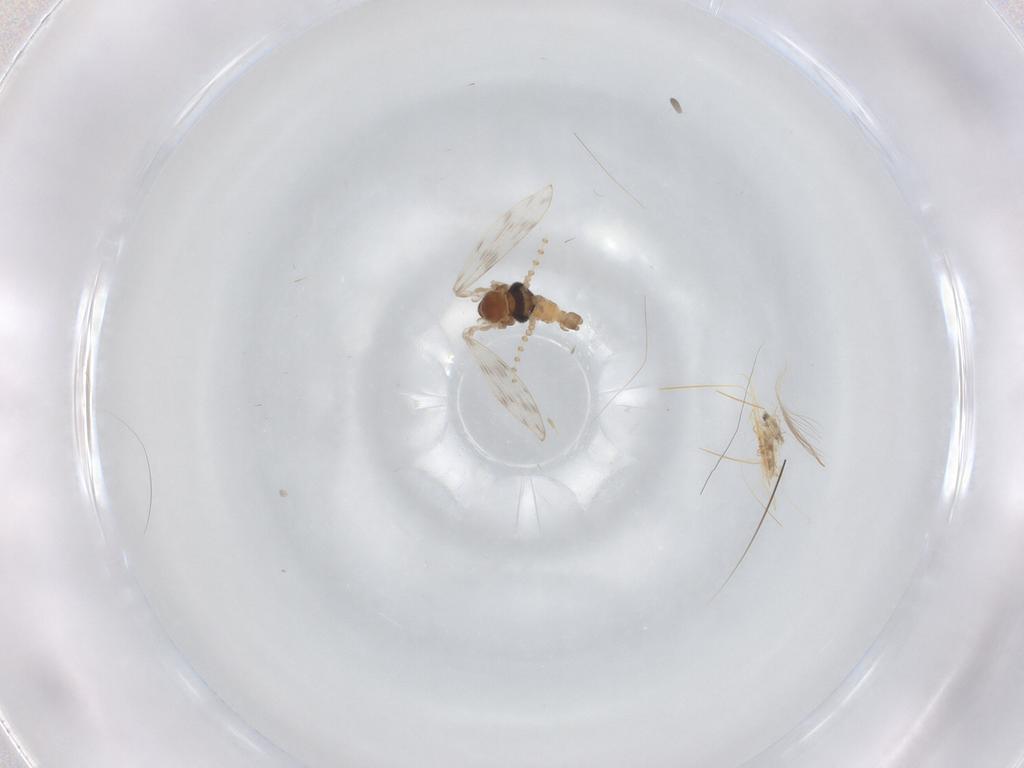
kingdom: Animalia
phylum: Arthropoda
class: Insecta
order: Diptera
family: Psychodidae
